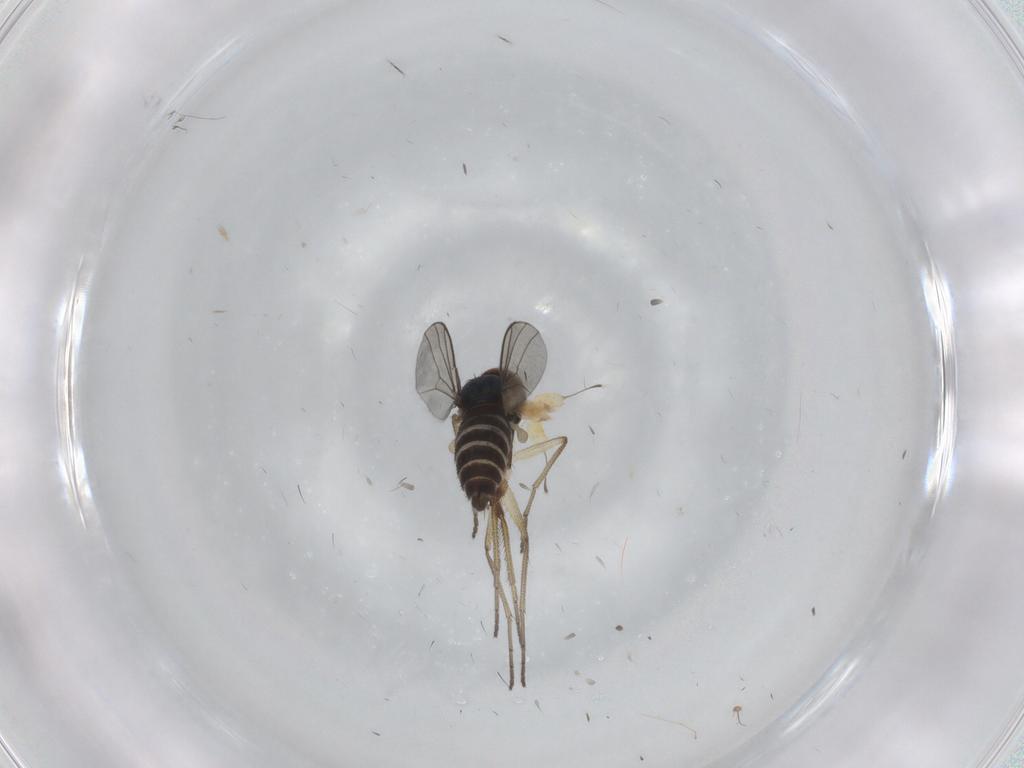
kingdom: Animalia
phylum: Arthropoda
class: Insecta
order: Diptera
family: Dolichopodidae
